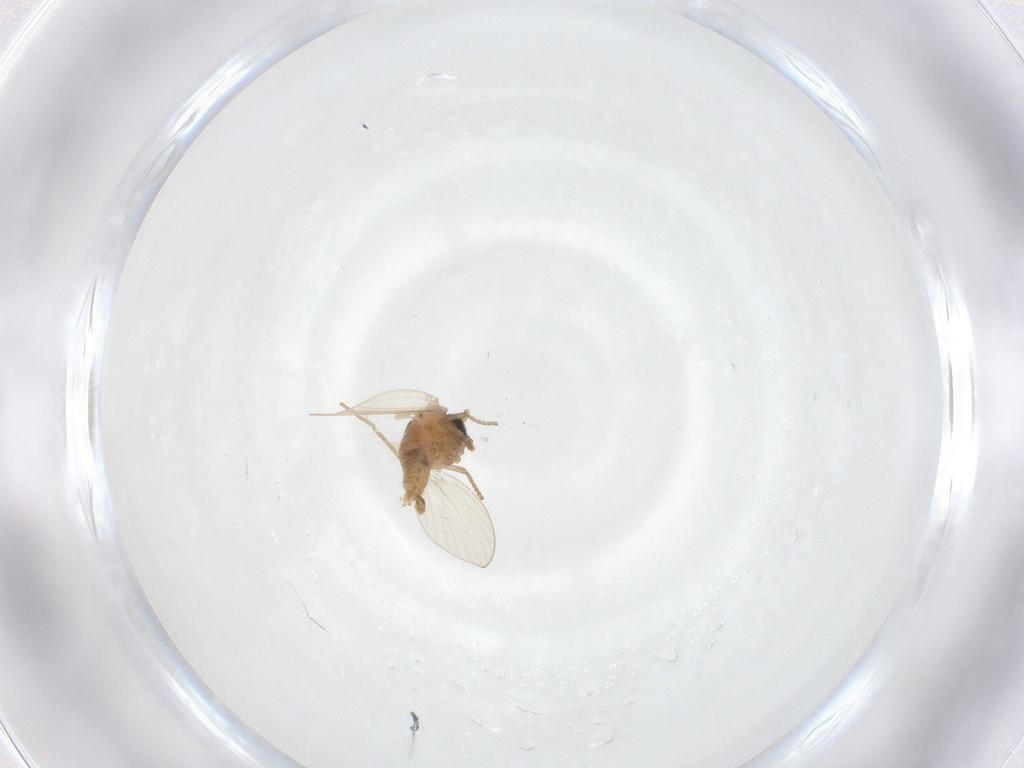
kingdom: Animalia
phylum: Arthropoda
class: Insecta
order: Diptera
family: Psychodidae
